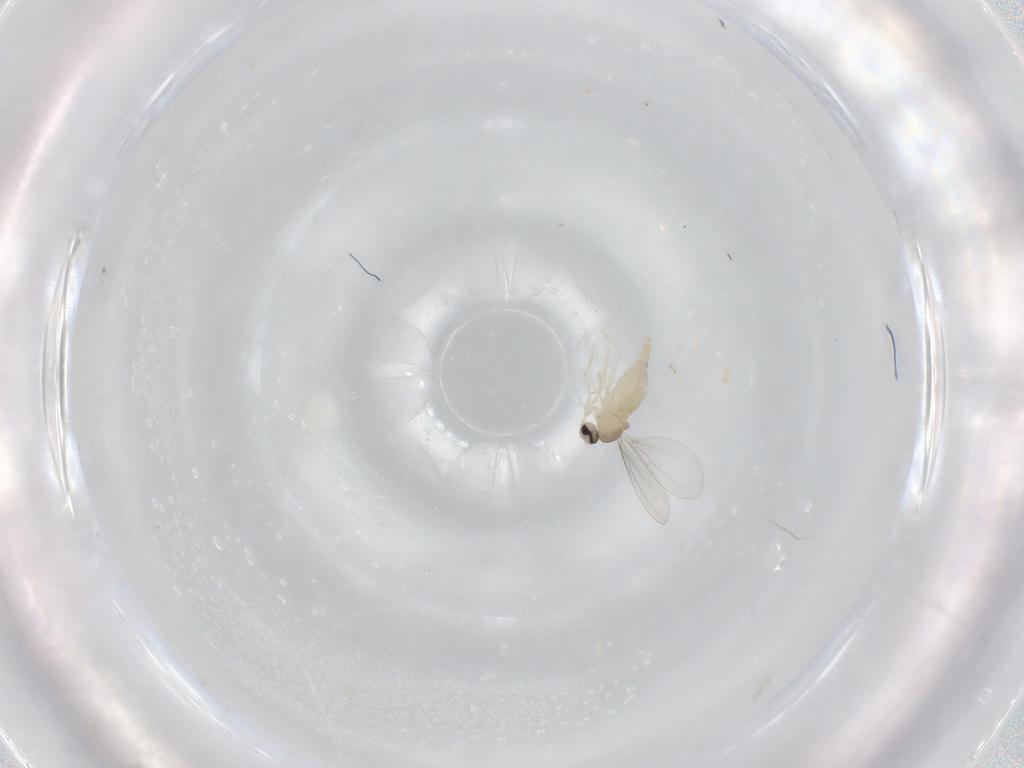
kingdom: Animalia
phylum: Arthropoda
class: Insecta
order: Diptera
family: Cecidomyiidae
